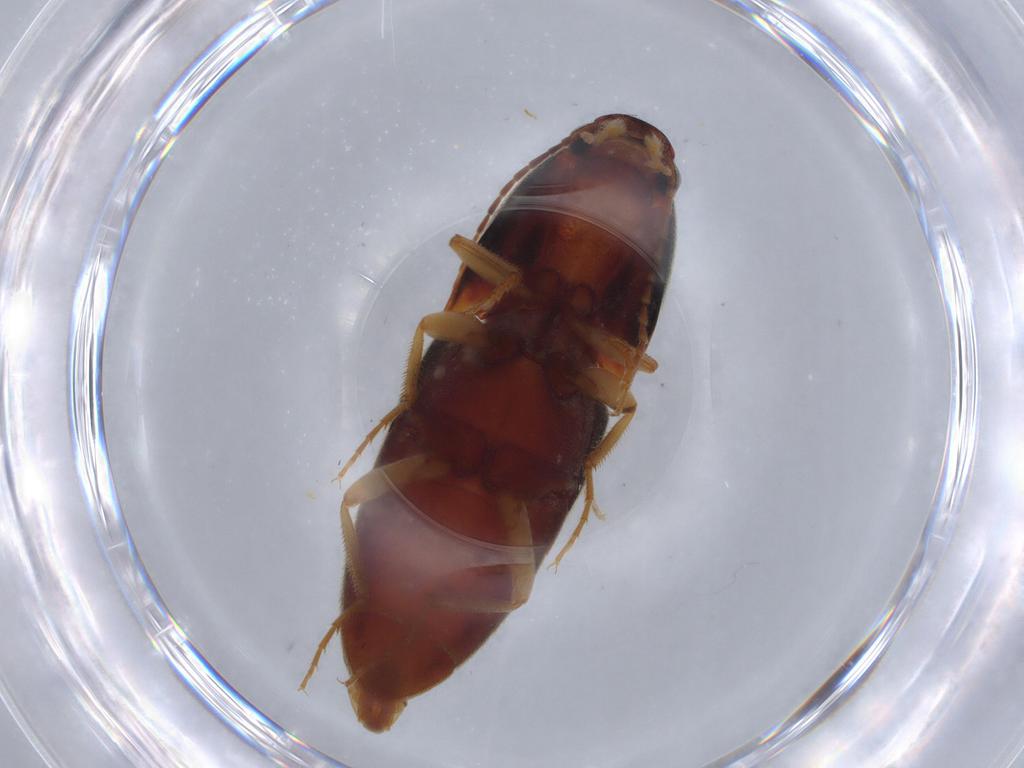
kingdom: Animalia
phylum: Arthropoda
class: Insecta
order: Coleoptera
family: Elateridae
